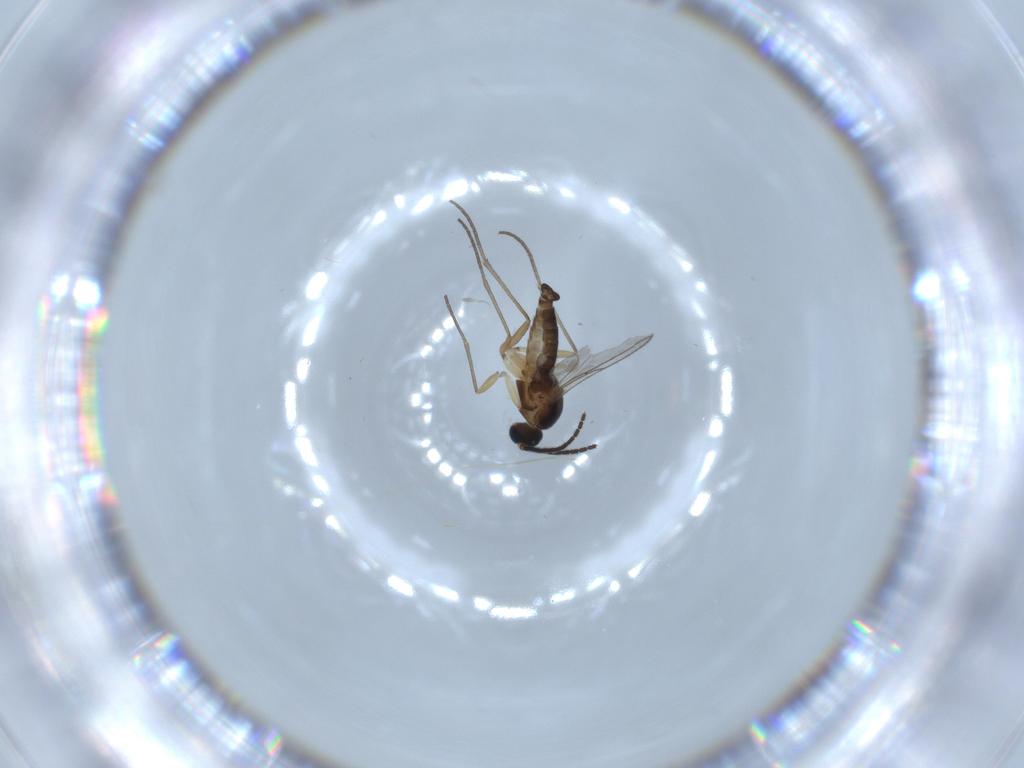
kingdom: Animalia
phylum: Arthropoda
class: Insecta
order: Diptera
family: Sciaridae
